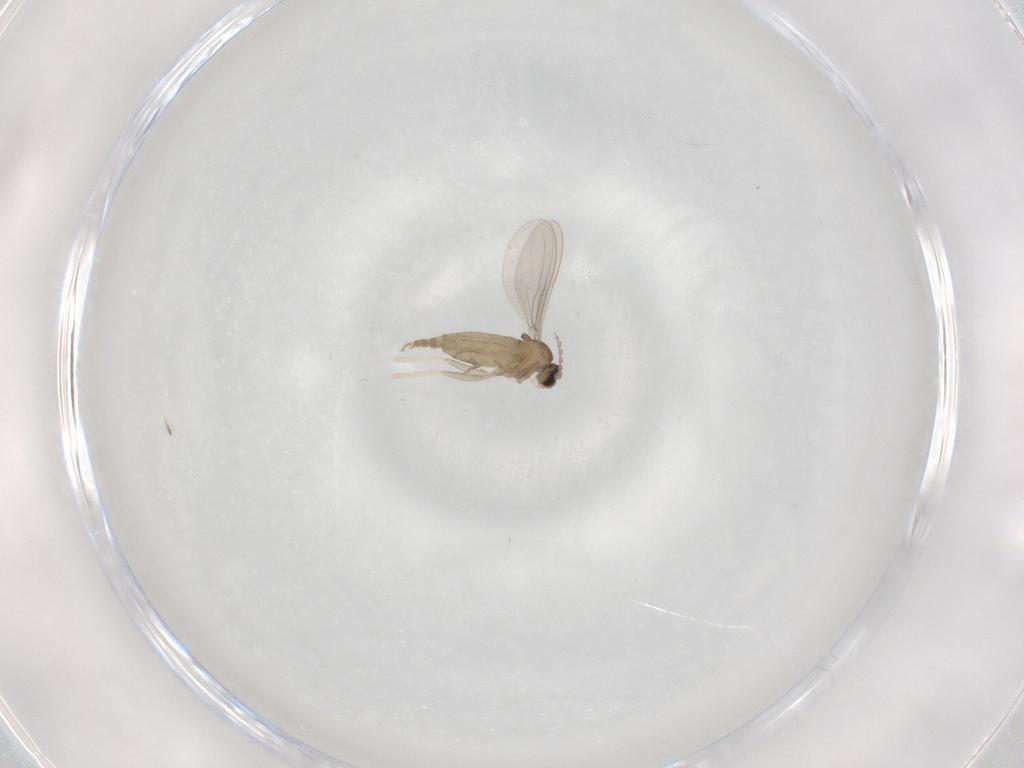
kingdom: Animalia
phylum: Arthropoda
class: Insecta
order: Diptera
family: Cecidomyiidae
